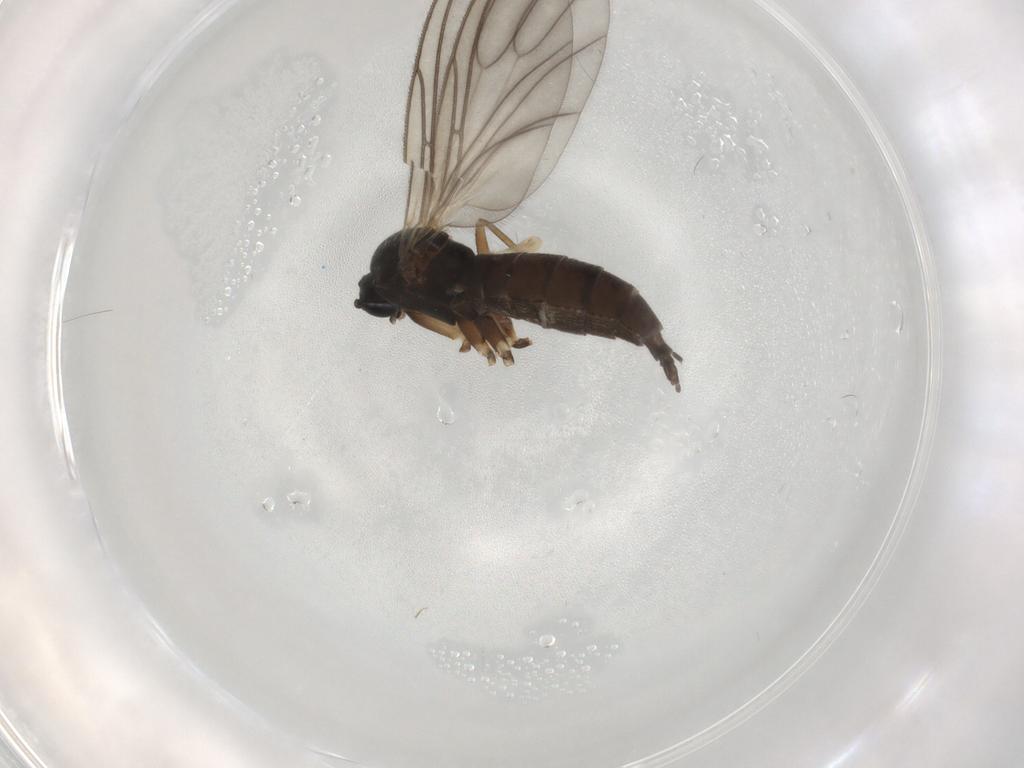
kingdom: Animalia
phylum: Arthropoda
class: Insecta
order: Diptera
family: Sciaridae
